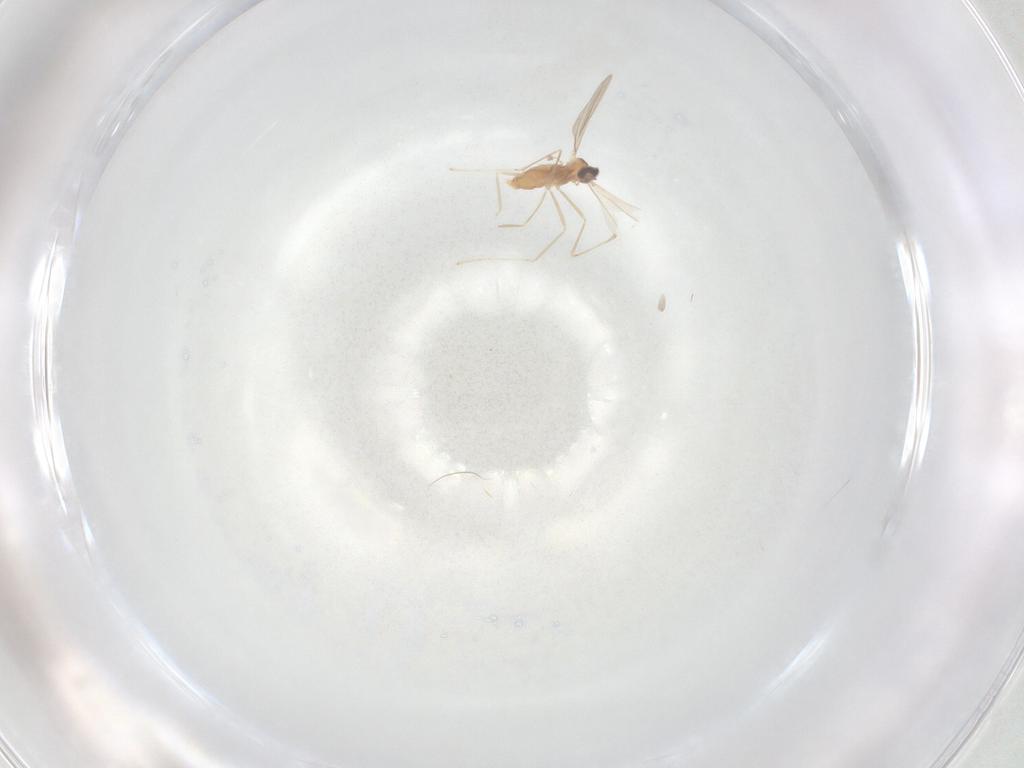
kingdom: Animalia
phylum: Arthropoda
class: Insecta
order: Diptera
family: Cecidomyiidae
